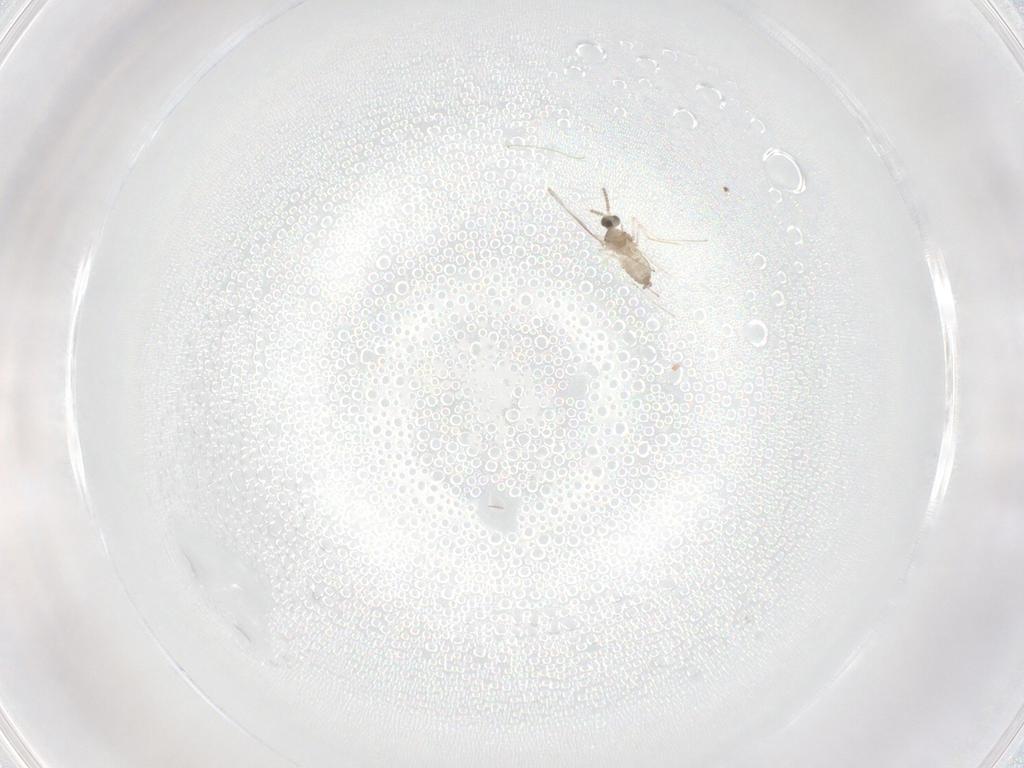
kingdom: Animalia
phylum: Arthropoda
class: Insecta
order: Diptera
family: Cecidomyiidae
